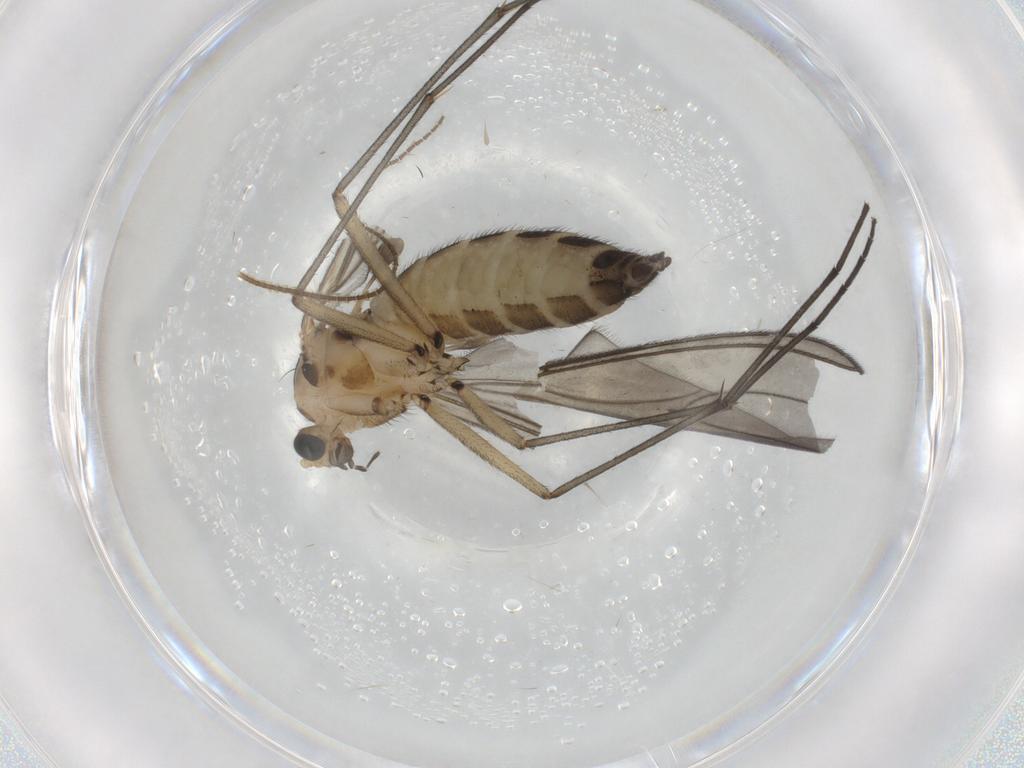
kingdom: Animalia
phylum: Arthropoda
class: Insecta
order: Diptera
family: Sciaridae
